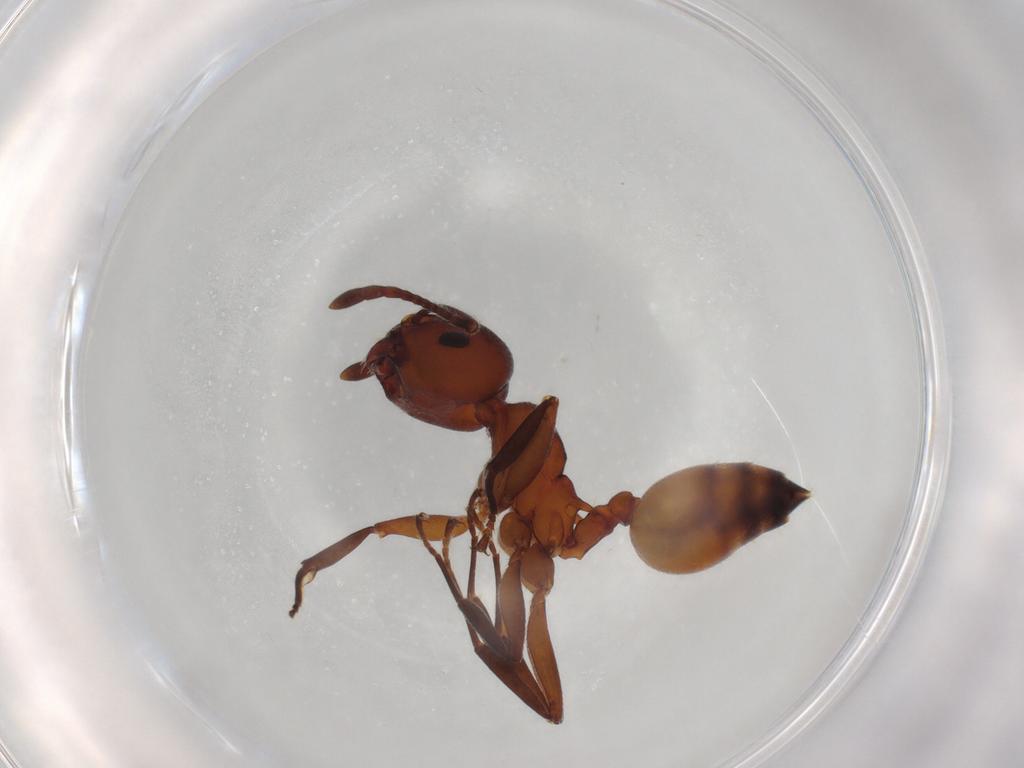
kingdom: Animalia
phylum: Arthropoda
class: Insecta
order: Hymenoptera
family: Formicidae
